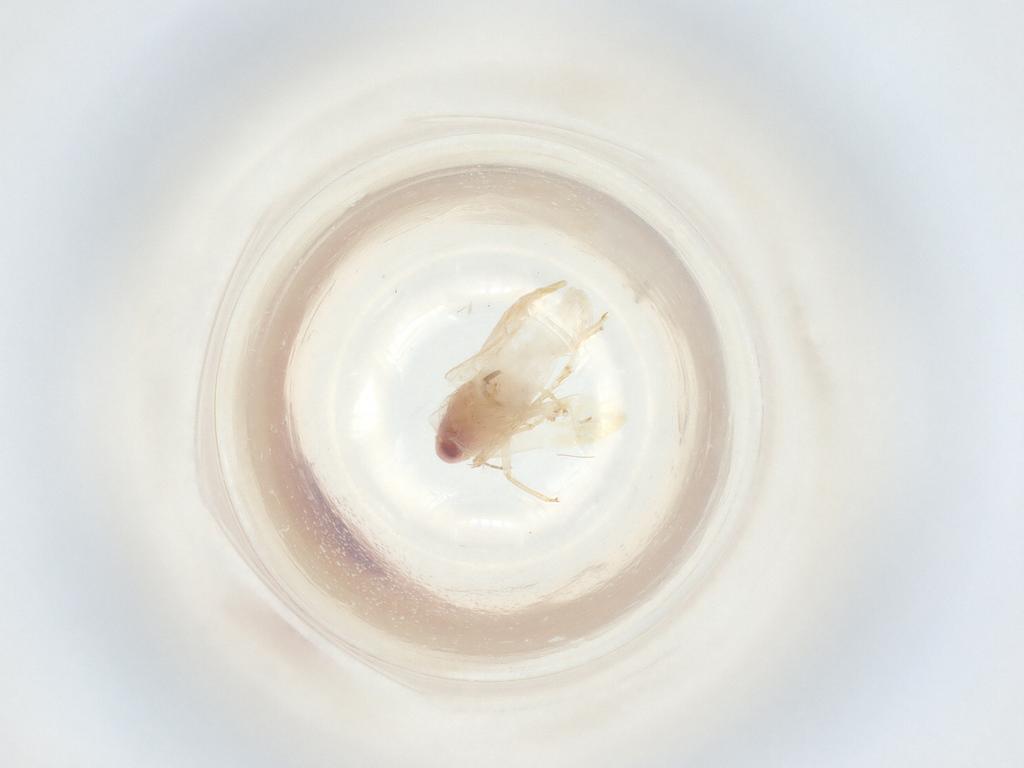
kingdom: Animalia
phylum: Arthropoda
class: Insecta
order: Hemiptera
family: Cicadellidae
